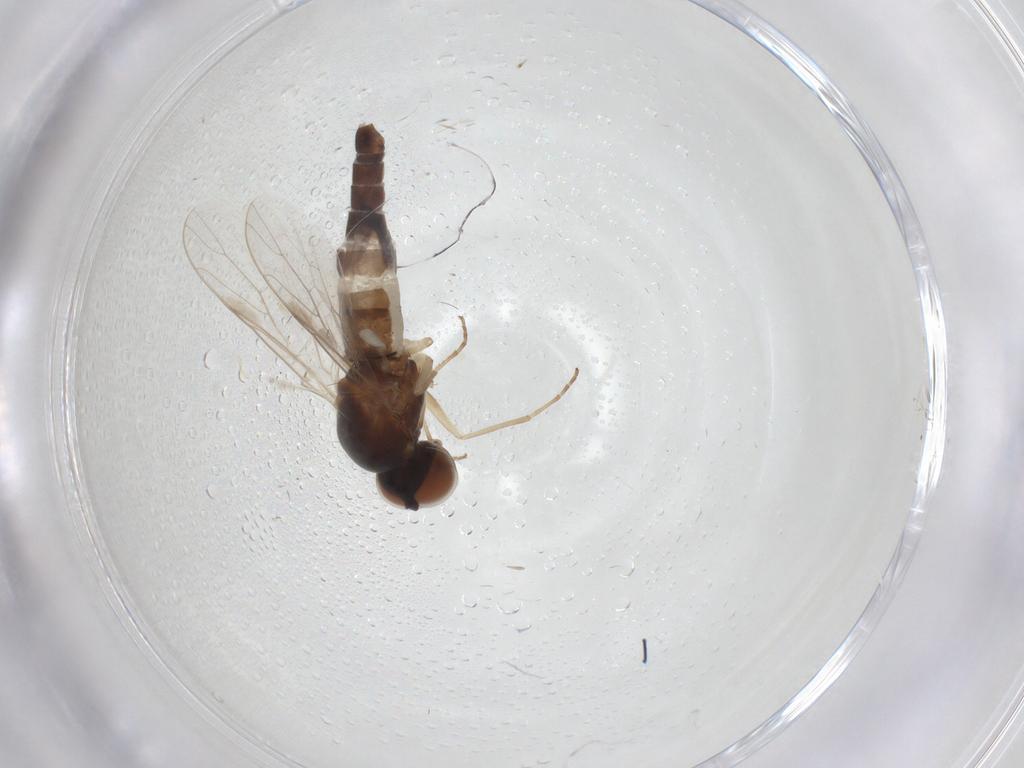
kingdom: Animalia
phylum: Arthropoda
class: Insecta
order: Diptera
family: Scenopinidae
